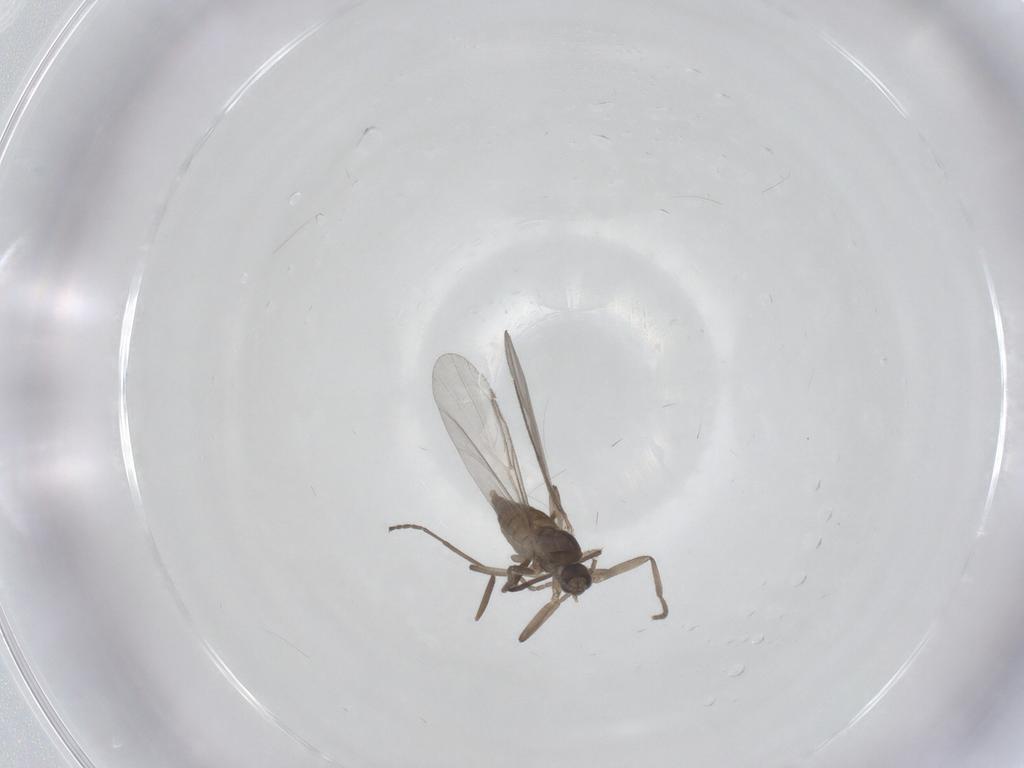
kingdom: Animalia
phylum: Arthropoda
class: Insecta
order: Diptera
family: Cecidomyiidae
